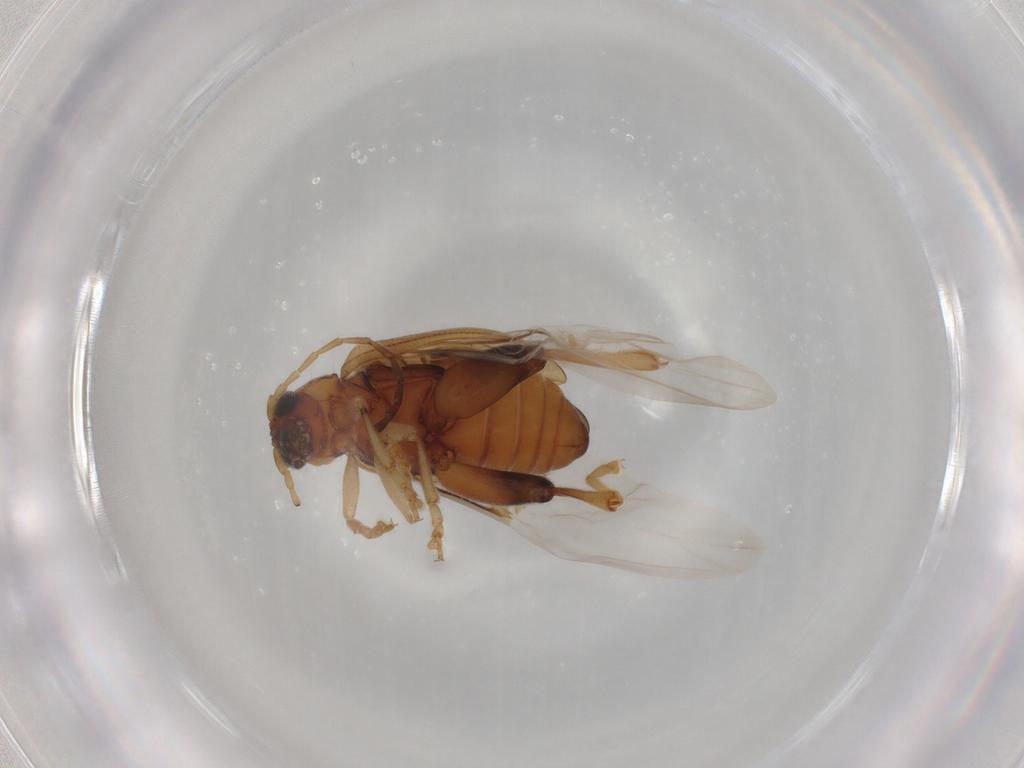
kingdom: Animalia
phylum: Arthropoda
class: Insecta
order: Coleoptera
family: Chrysomelidae
